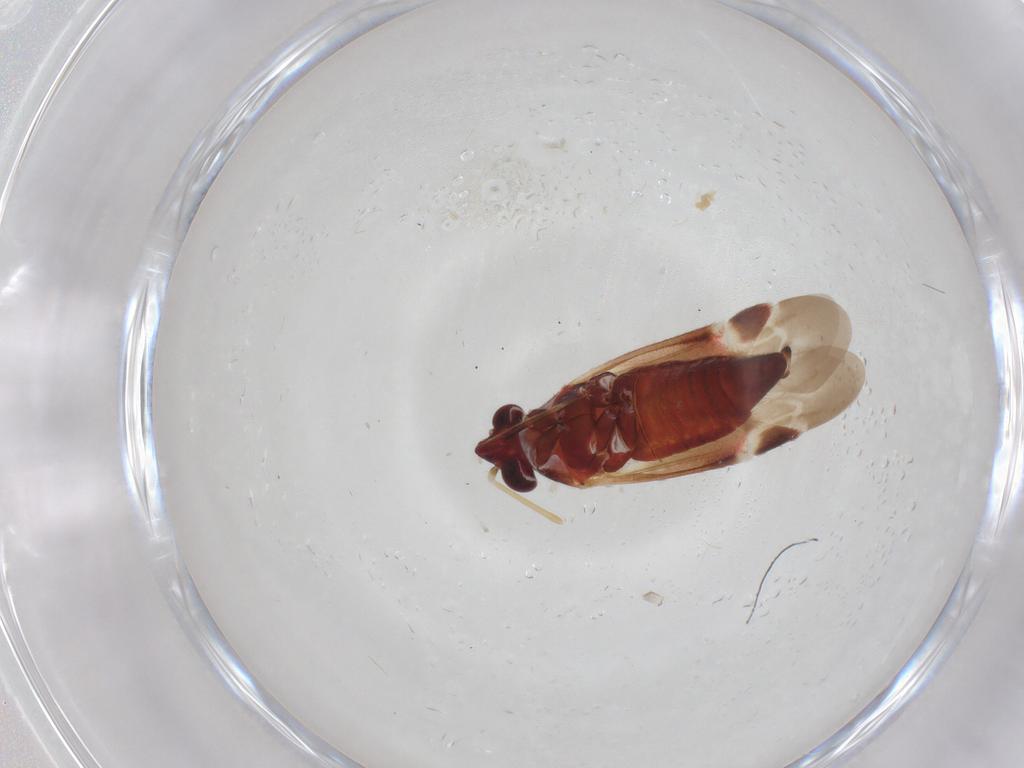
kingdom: Animalia
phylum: Arthropoda
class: Insecta
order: Hemiptera
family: Miridae
